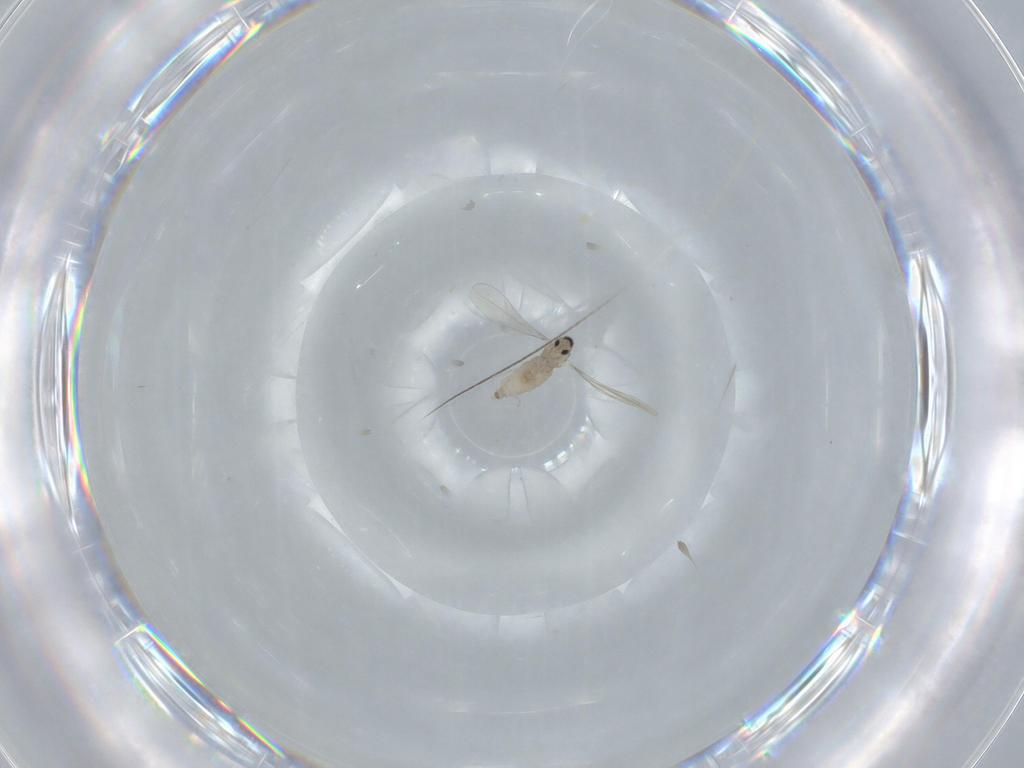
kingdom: Animalia
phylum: Arthropoda
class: Insecta
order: Diptera
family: Cecidomyiidae
